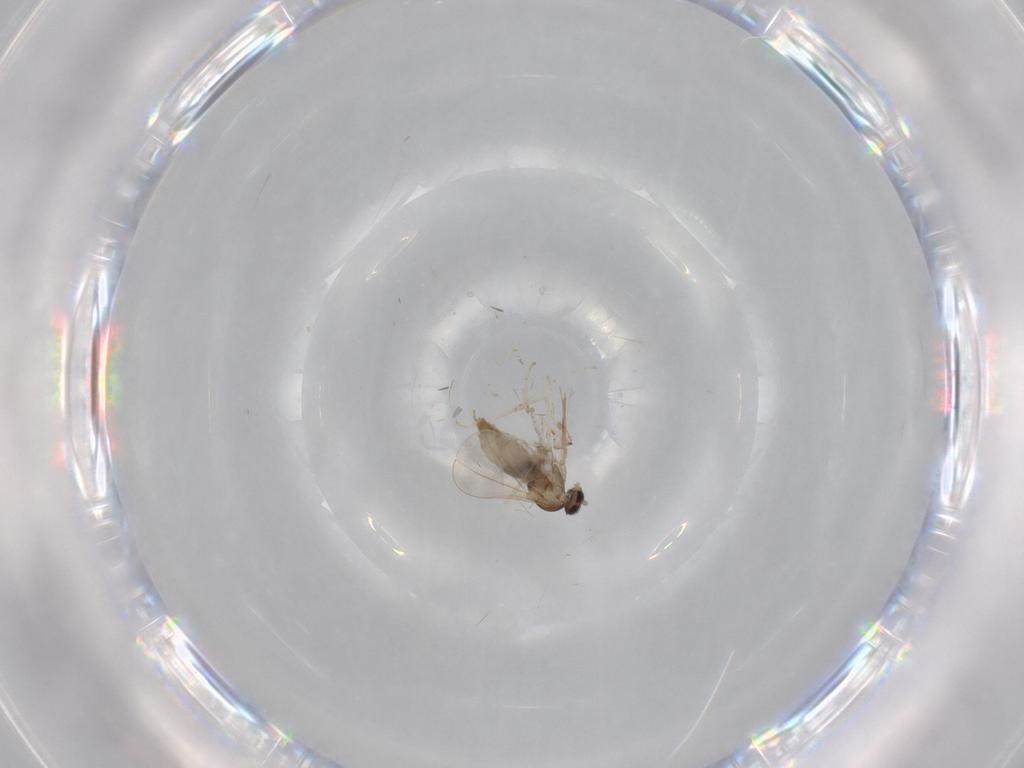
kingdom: Animalia
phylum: Arthropoda
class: Insecta
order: Diptera
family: Cecidomyiidae
